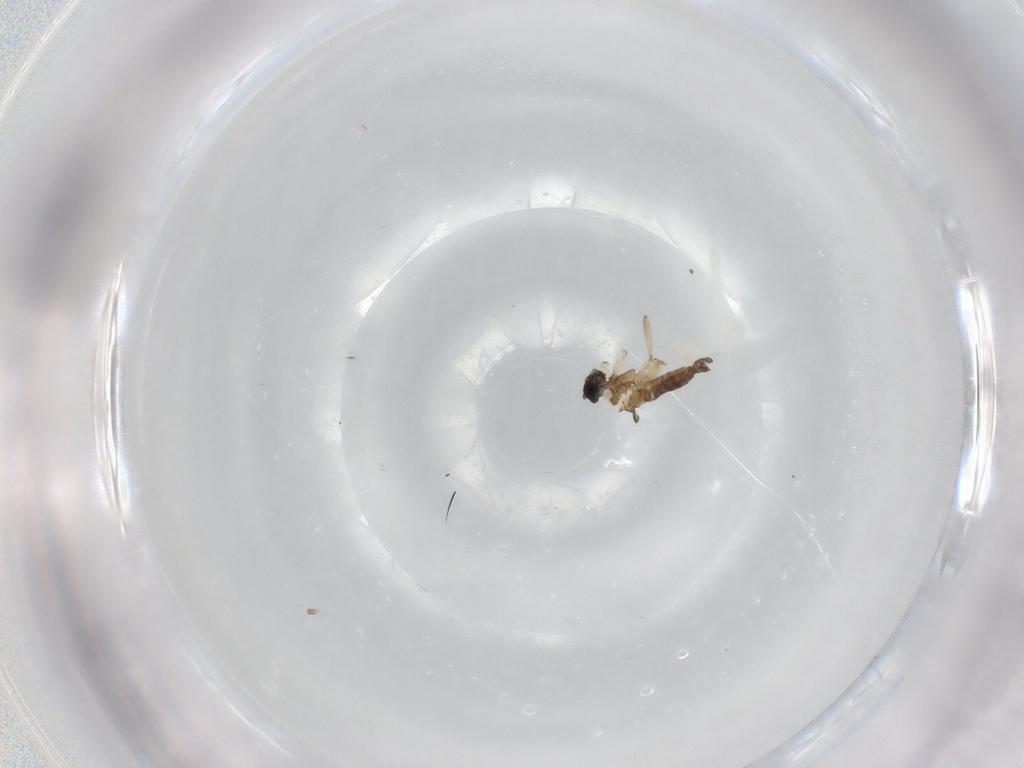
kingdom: Animalia
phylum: Arthropoda
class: Insecta
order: Diptera
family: Sciaridae
